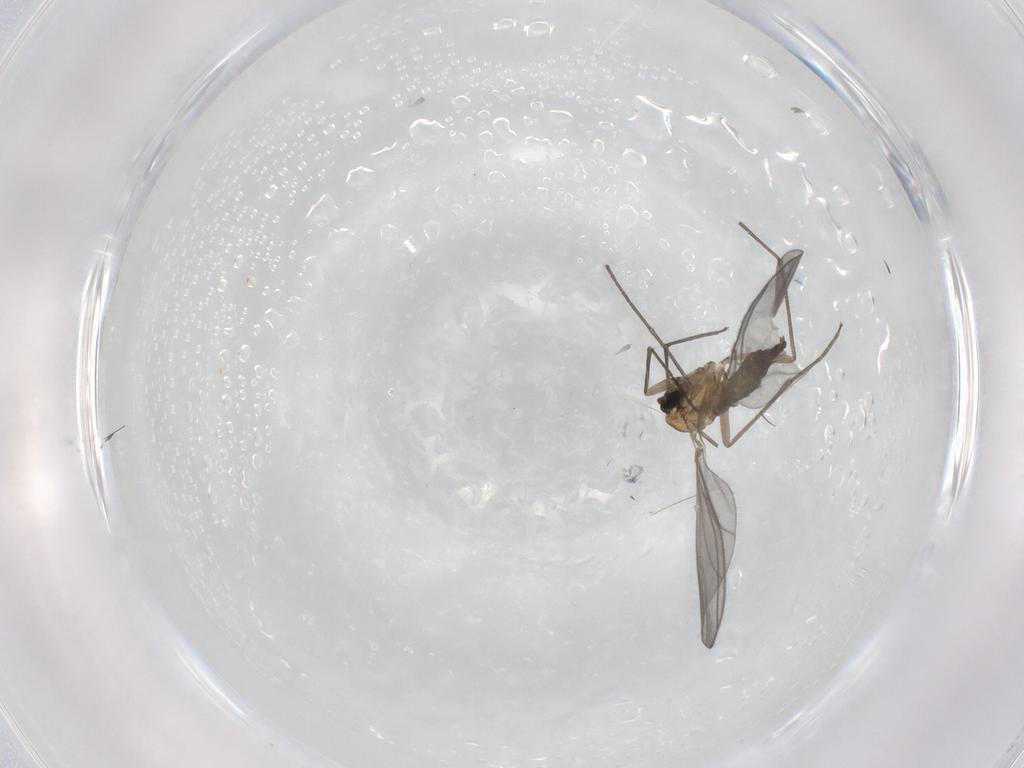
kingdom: Animalia
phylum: Arthropoda
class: Insecta
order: Diptera
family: Sciaridae
